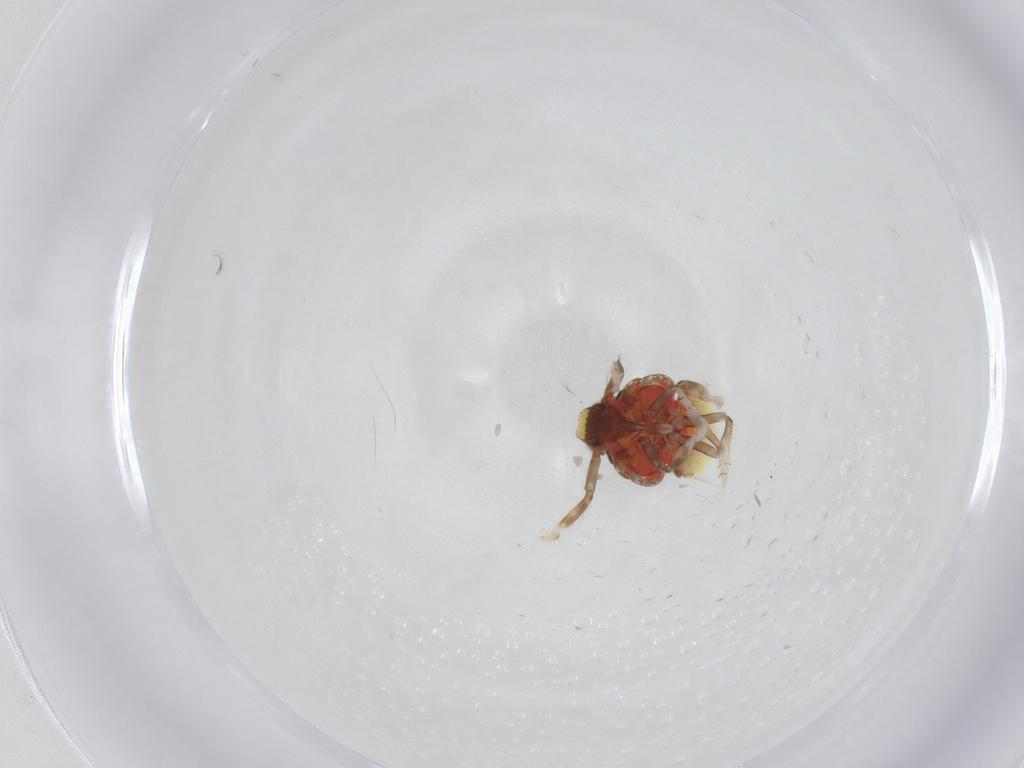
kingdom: Animalia
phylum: Arthropoda
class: Insecta
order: Hemiptera
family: Issidae
